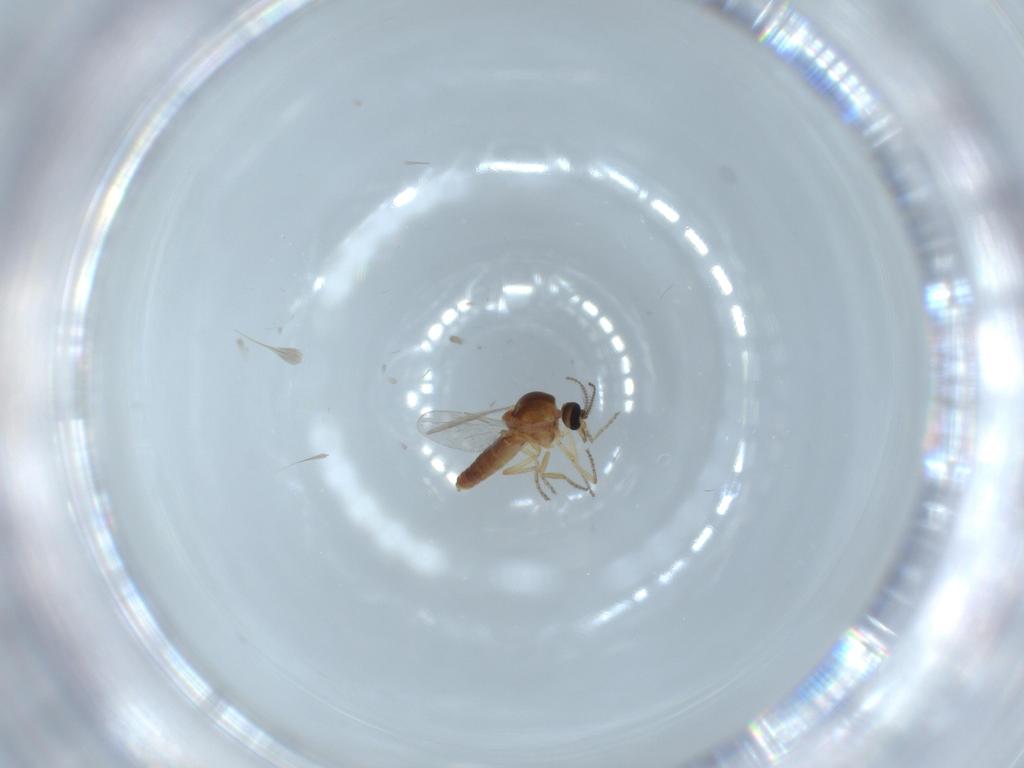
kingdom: Animalia
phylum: Arthropoda
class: Insecta
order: Diptera
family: Ceratopogonidae
